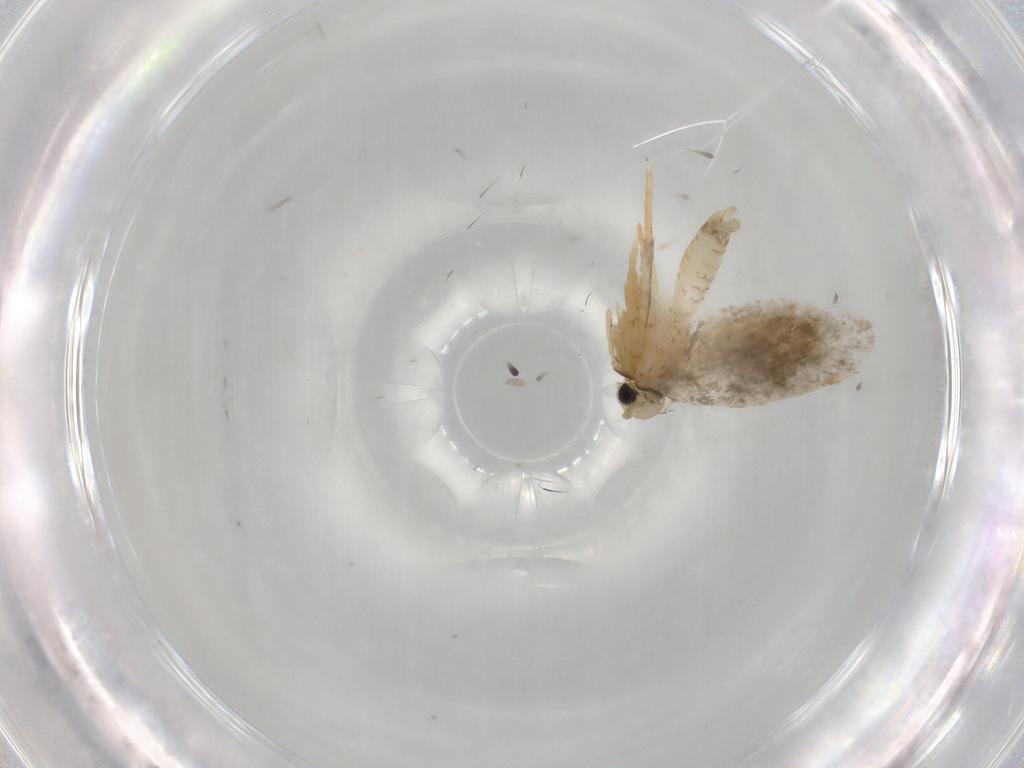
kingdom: Animalia
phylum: Arthropoda
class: Insecta
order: Lepidoptera
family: Psychidae
